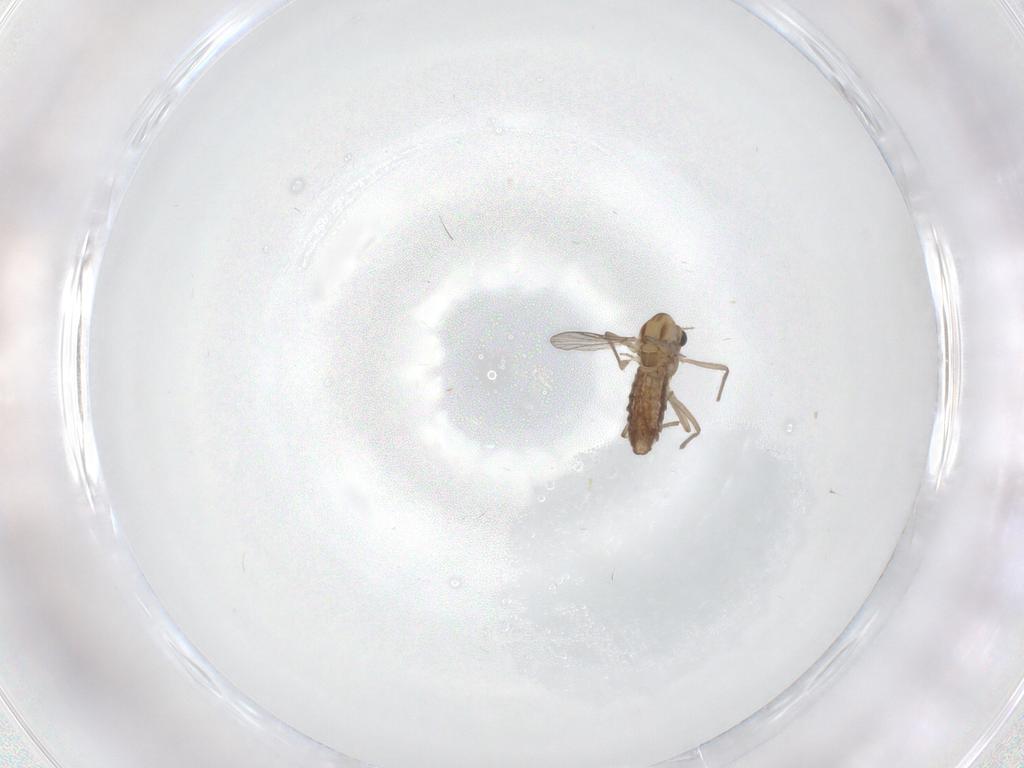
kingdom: Animalia
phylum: Arthropoda
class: Insecta
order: Diptera
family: Chironomidae
